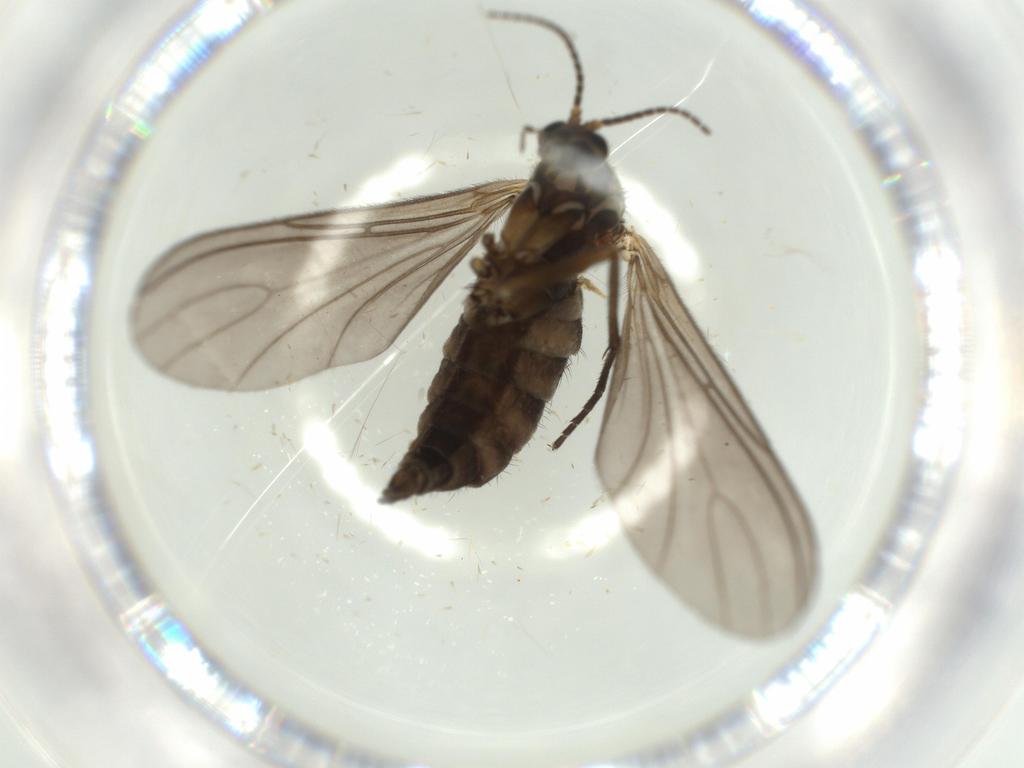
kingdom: Animalia
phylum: Arthropoda
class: Insecta
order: Diptera
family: Sciaridae
